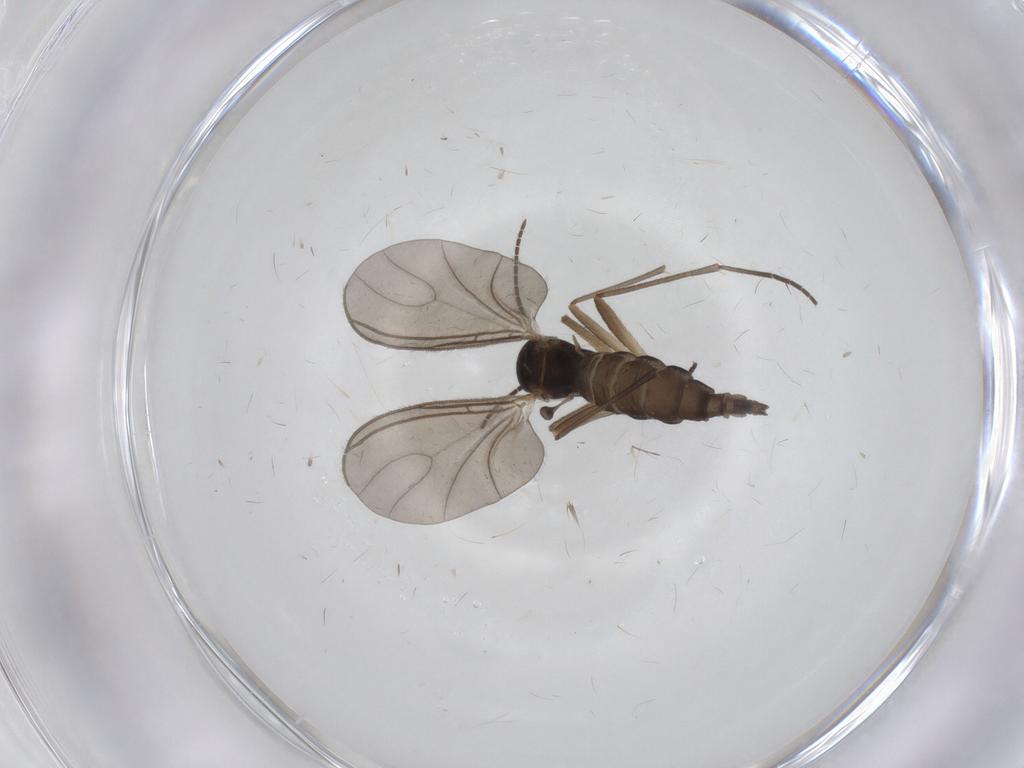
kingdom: Animalia
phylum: Arthropoda
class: Insecta
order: Diptera
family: Sciaridae
